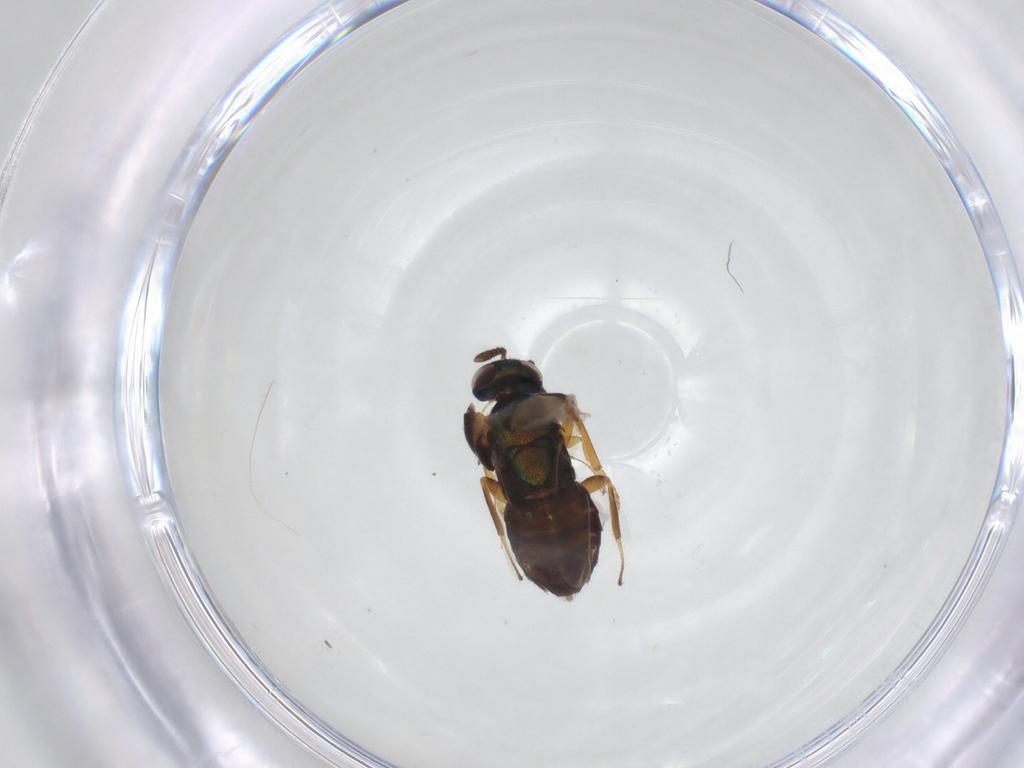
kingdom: Animalia
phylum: Arthropoda
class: Insecta
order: Hymenoptera
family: Encyrtidae
